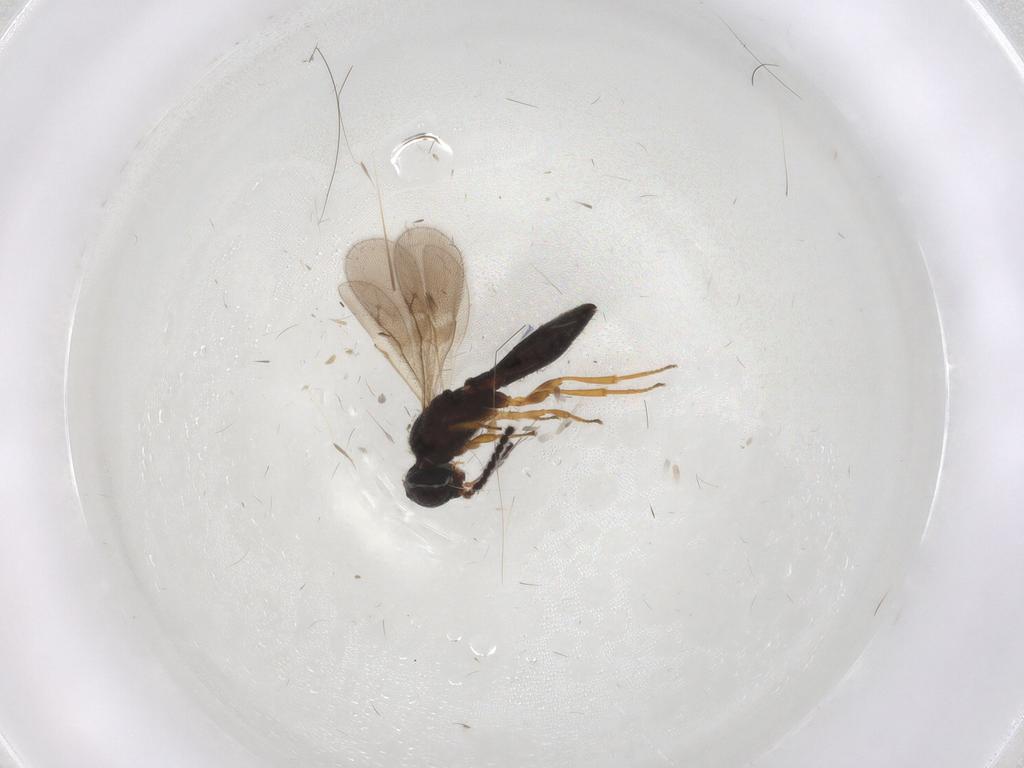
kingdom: Animalia
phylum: Arthropoda
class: Insecta
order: Hymenoptera
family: Scelionidae
